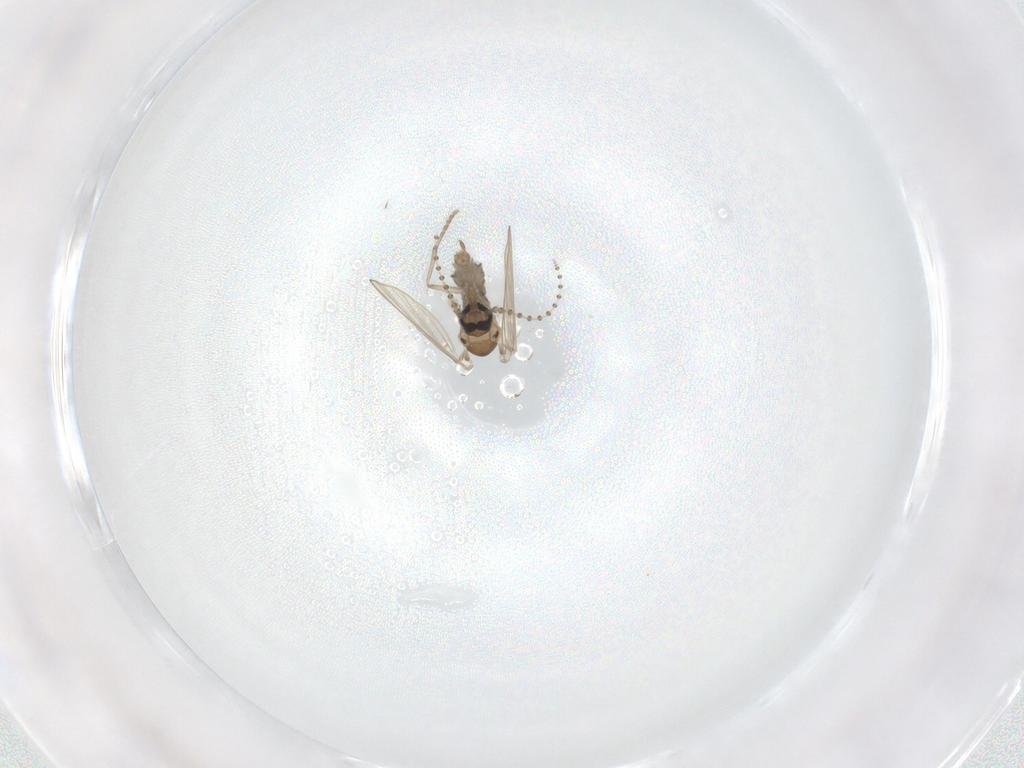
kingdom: Animalia
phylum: Arthropoda
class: Insecta
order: Diptera
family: Psychodidae
